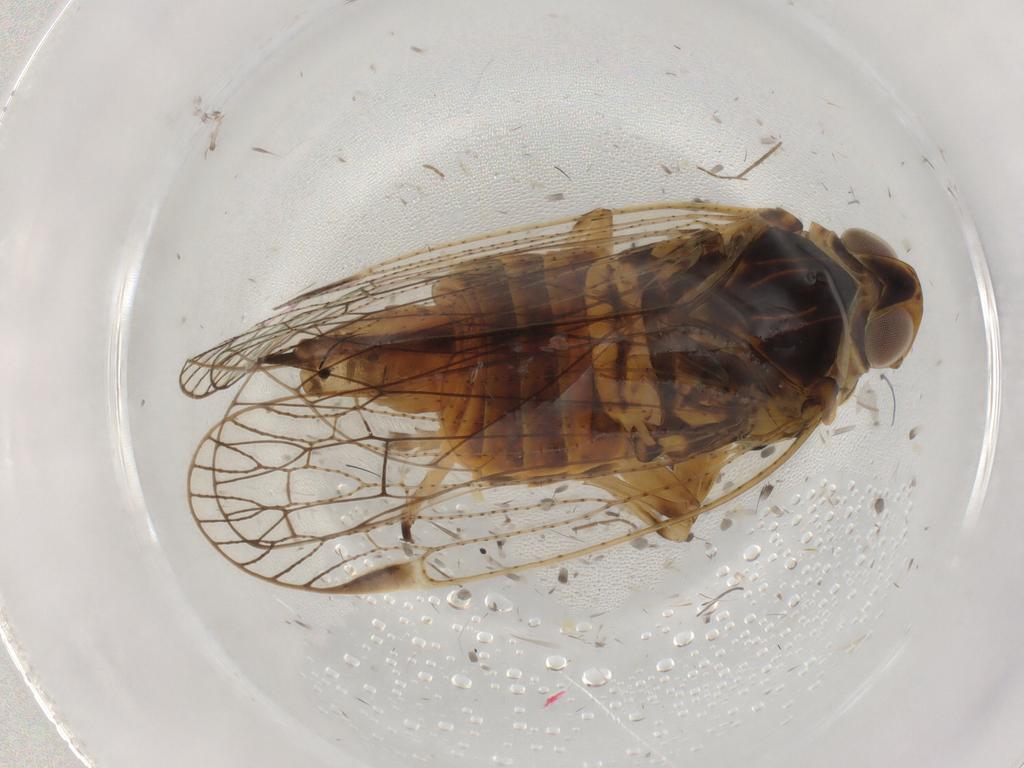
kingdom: Animalia
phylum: Arthropoda
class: Insecta
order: Hemiptera
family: Cixiidae
